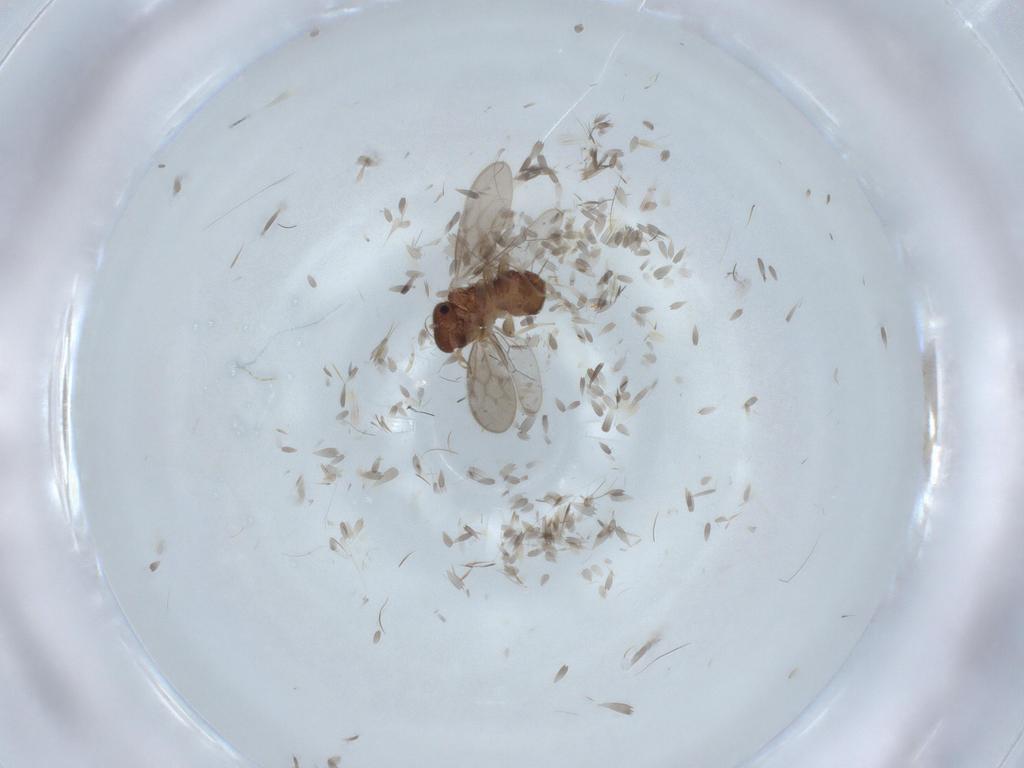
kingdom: Animalia
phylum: Arthropoda
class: Insecta
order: Psocodea
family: Archipsocidae
